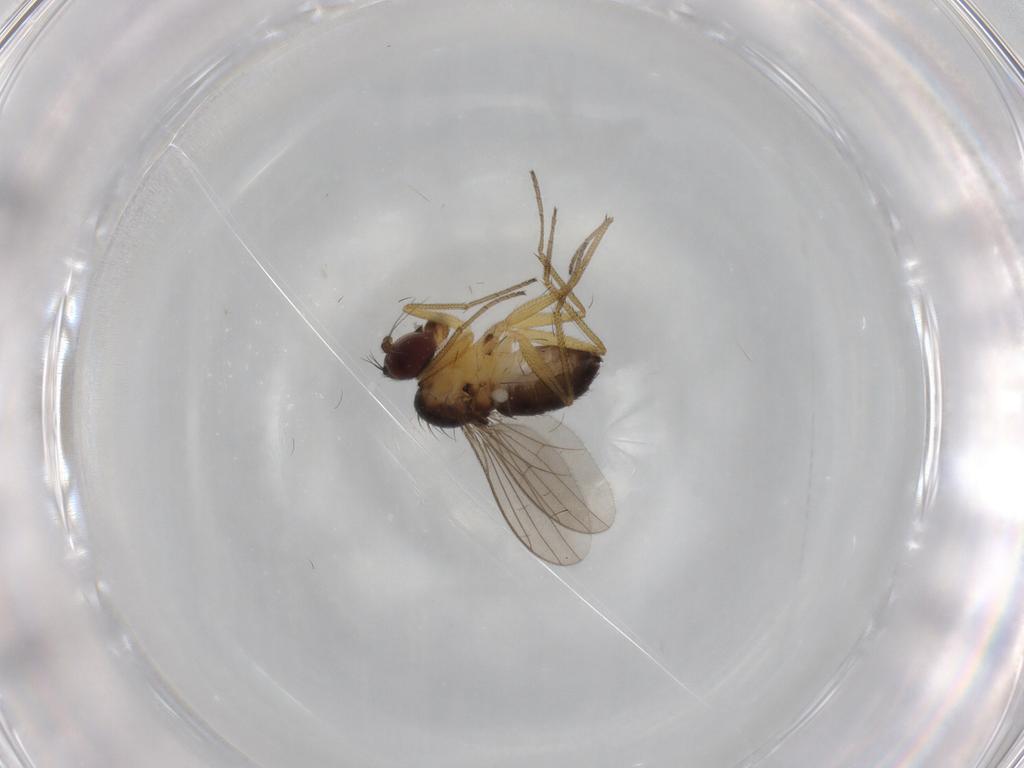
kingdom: Animalia
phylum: Arthropoda
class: Insecta
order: Diptera
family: Dolichopodidae
